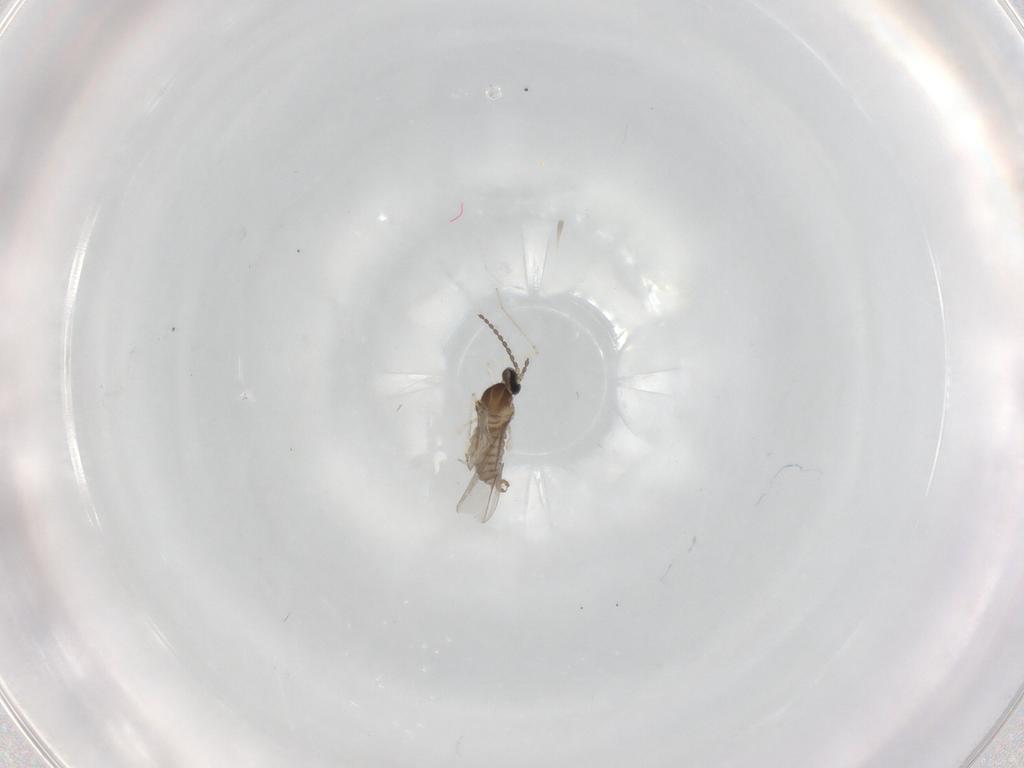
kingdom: Animalia
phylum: Arthropoda
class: Insecta
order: Diptera
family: Cecidomyiidae
